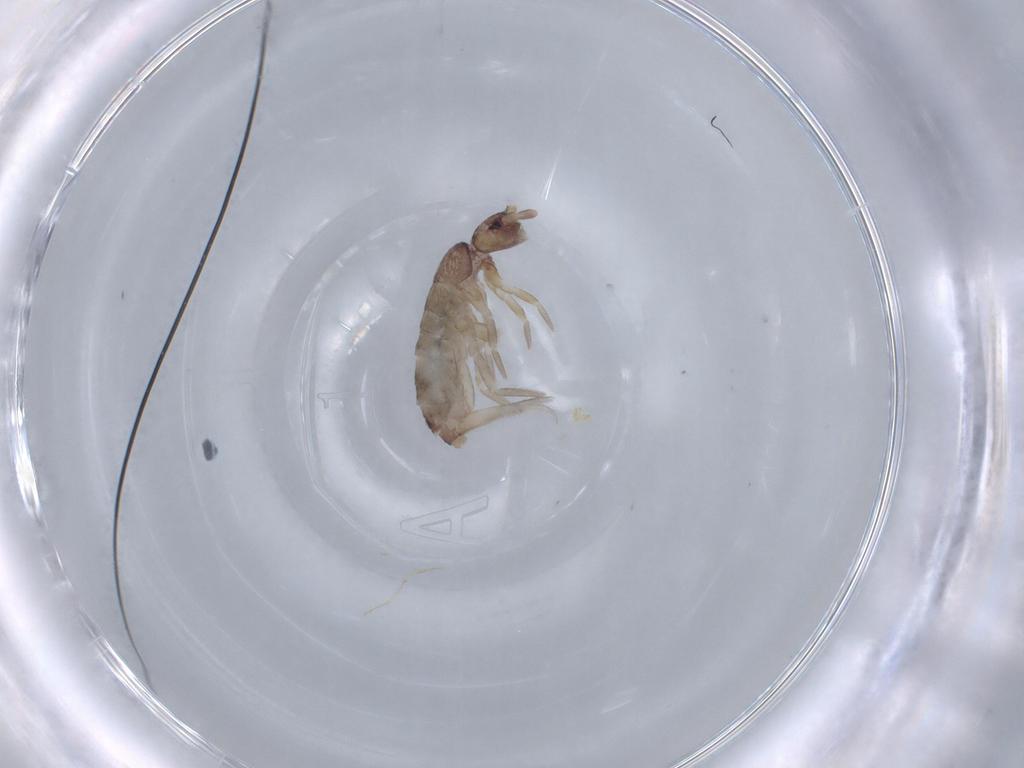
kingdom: Animalia
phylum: Arthropoda
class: Collembola
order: Entomobryomorpha
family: Tomoceridae
